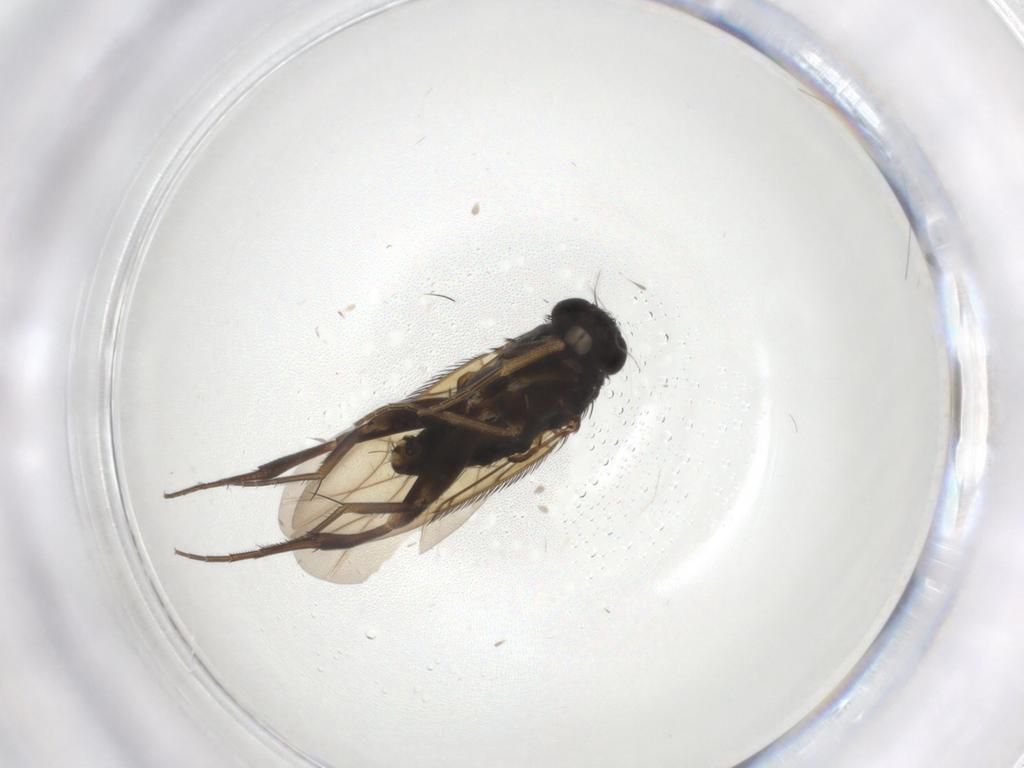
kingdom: Animalia
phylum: Arthropoda
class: Insecta
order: Diptera
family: Phoridae
